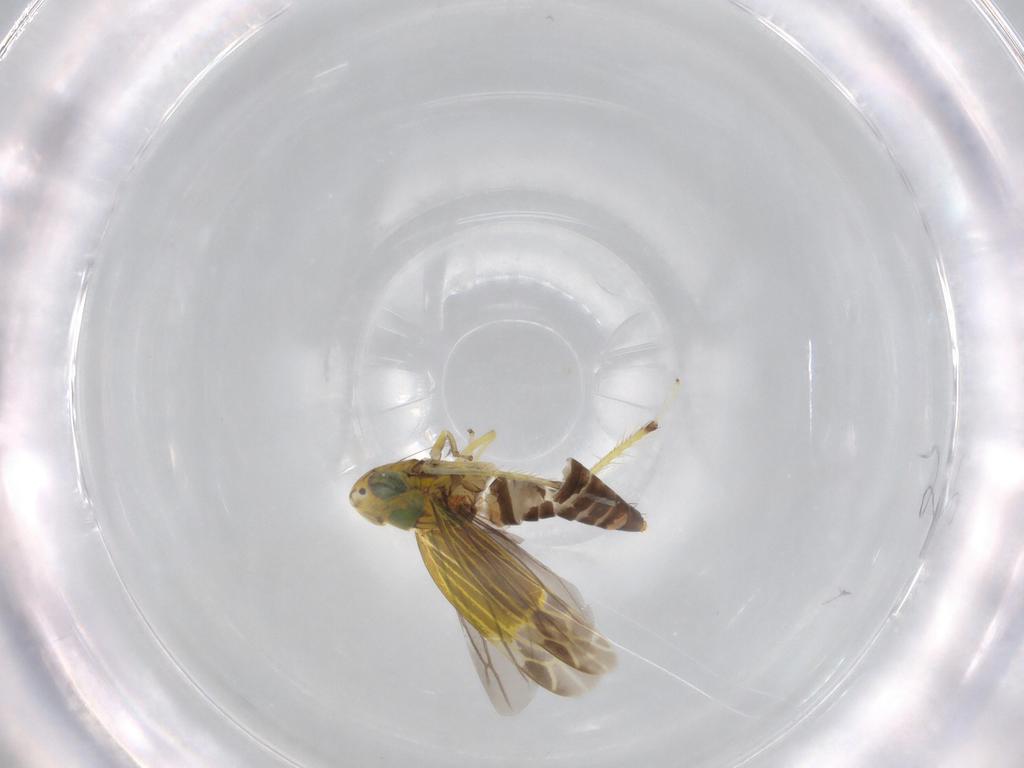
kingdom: Animalia
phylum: Arthropoda
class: Insecta
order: Hemiptera
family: Cicadellidae
